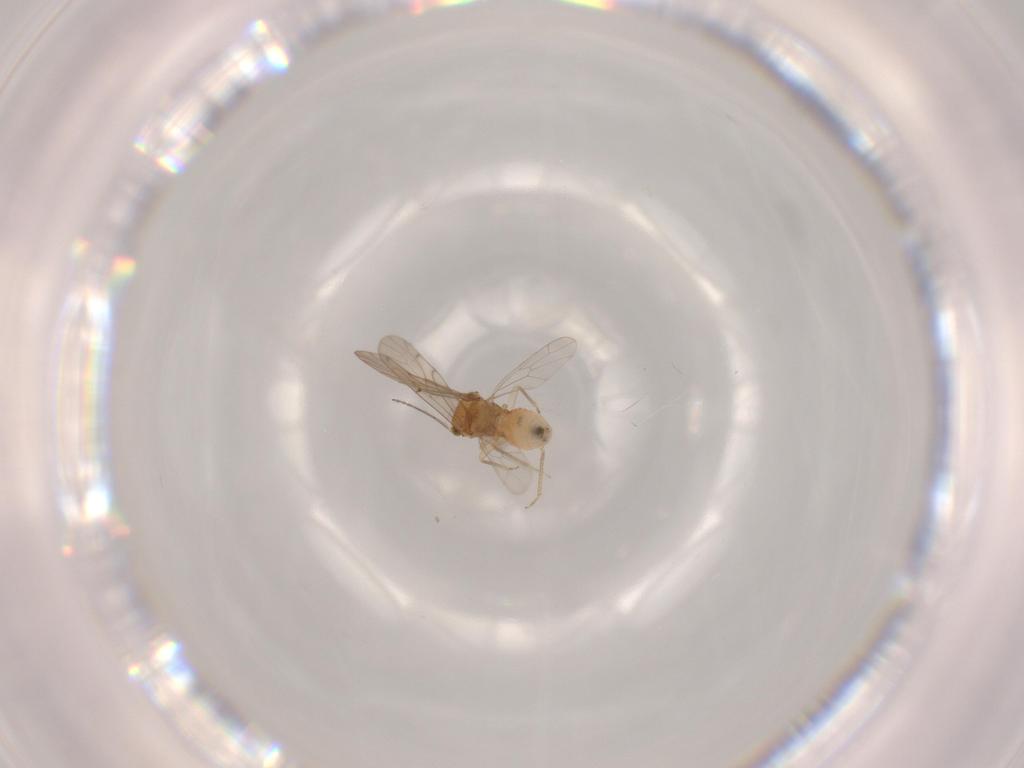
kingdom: Animalia
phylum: Arthropoda
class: Insecta
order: Psocodea
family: Ectopsocidae
